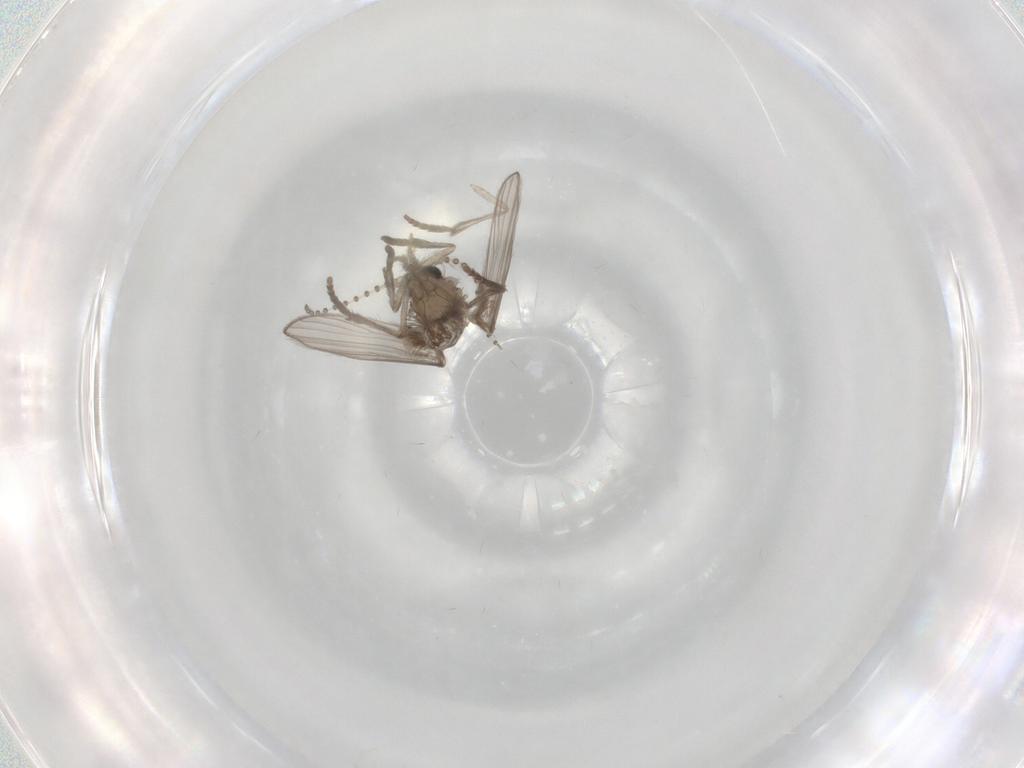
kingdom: Animalia
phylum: Arthropoda
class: Insecta
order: Diptera
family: Psychodidae
